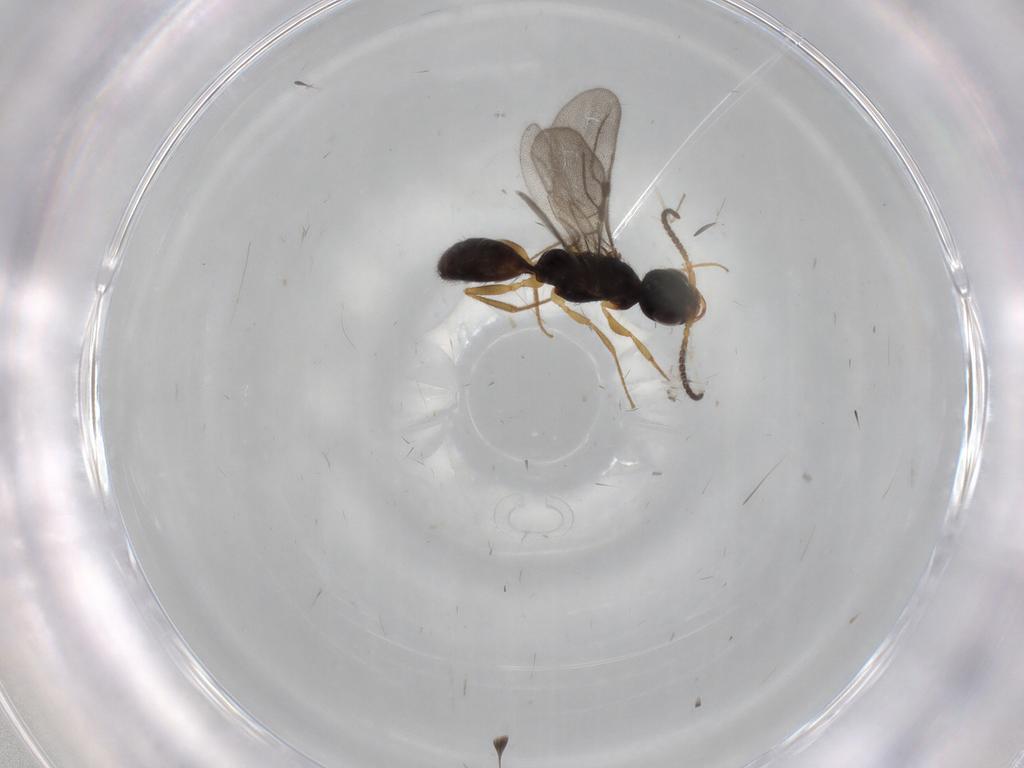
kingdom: Animalia
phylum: Arthropoda
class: Insecta
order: Hymenoptera
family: Bethylidae
